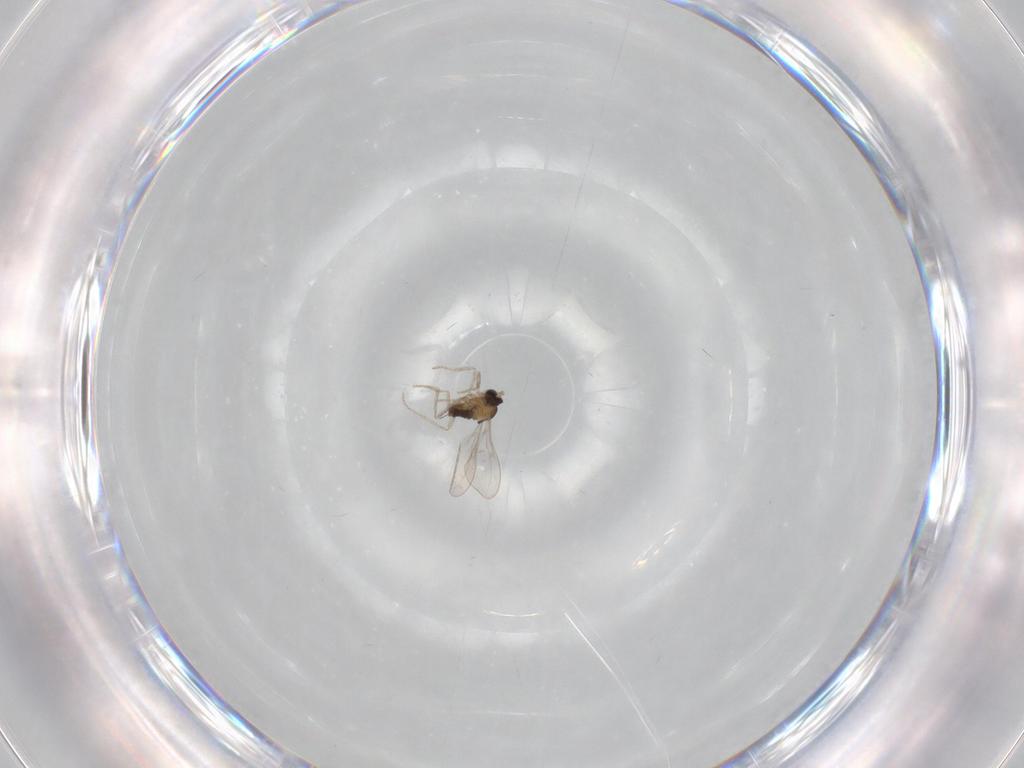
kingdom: Animalia
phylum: Arthropoda
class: Insecta
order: Diptera
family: Cecidomyiidae
